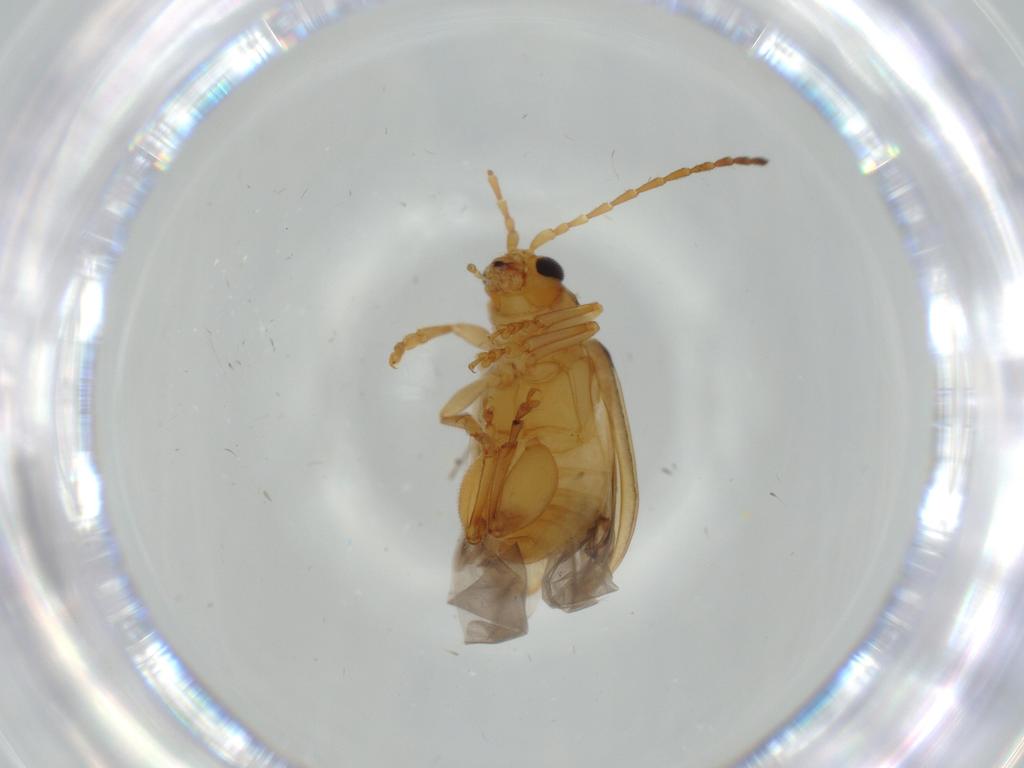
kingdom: Animalia
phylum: Arthropoda
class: Insecta
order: Coleoptera
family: Chrysomelidae
